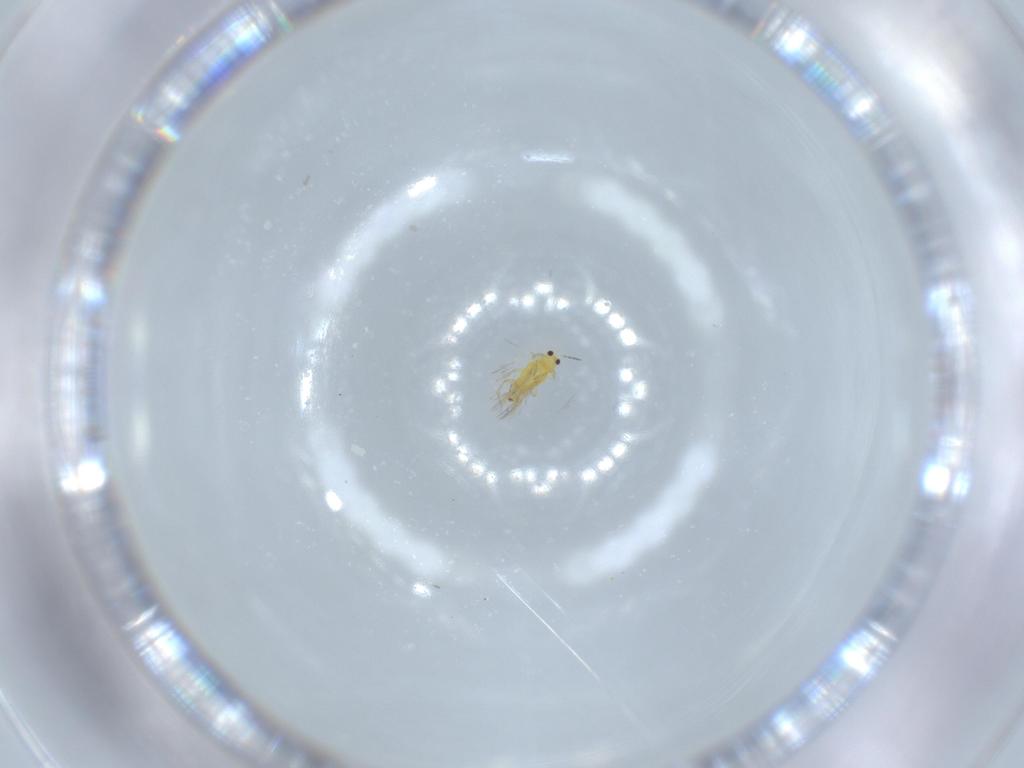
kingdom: Animalia
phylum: Arthropoda
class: Insecta
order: Thysanoptera
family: Thripidae
